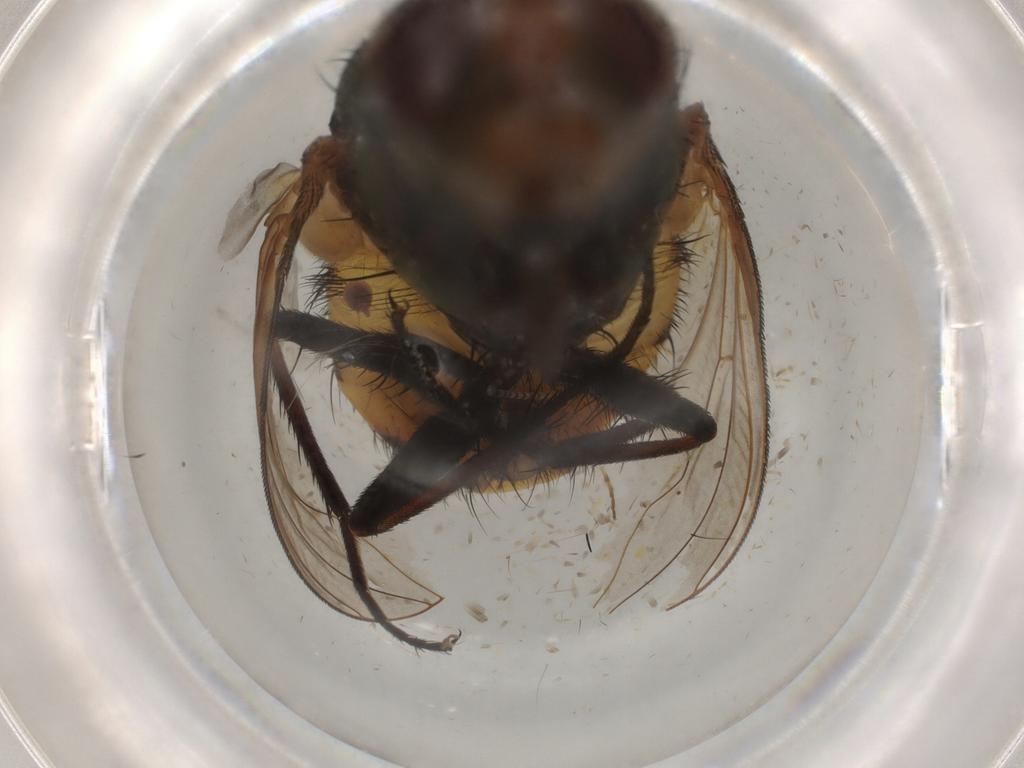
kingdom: Animalia
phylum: Arthropoda
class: Insecta
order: Diptera
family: Calliphoridae
